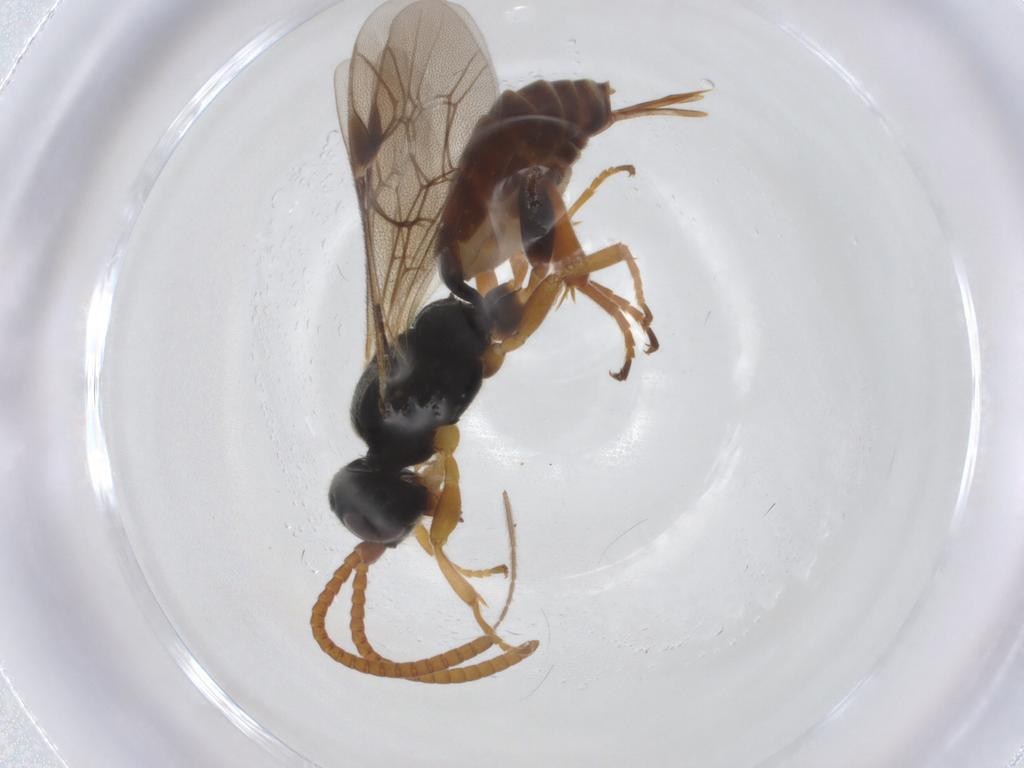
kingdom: Animalia
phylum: Arthropoda
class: Insecta
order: Hymenoptera
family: Ichneumonidae
